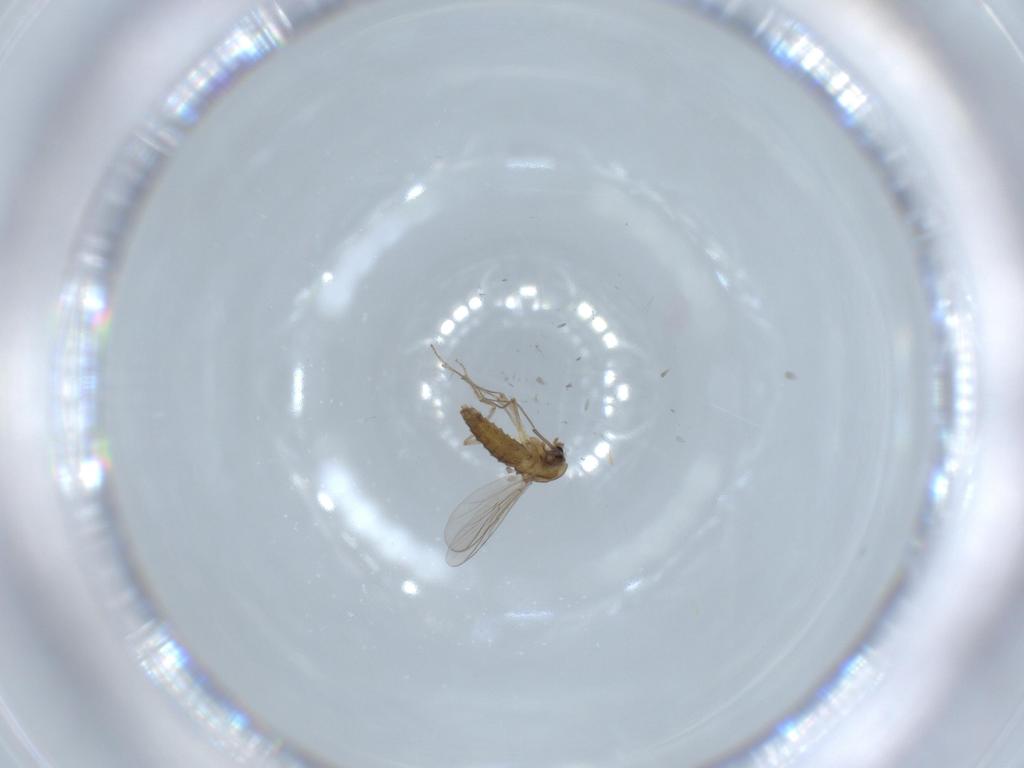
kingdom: Animalia
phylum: Arthropoda
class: Insecta
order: Diptera
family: Chironomidae
